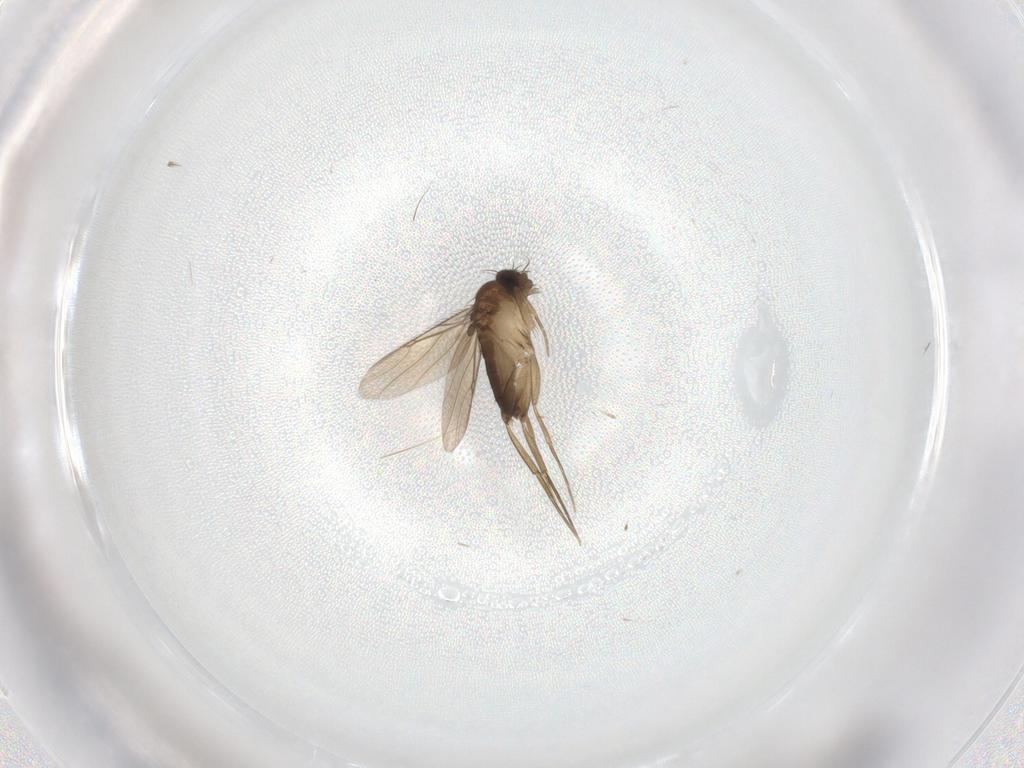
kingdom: Animalia
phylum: Arthropoda
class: Insecta
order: Diptera
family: Phoridae
